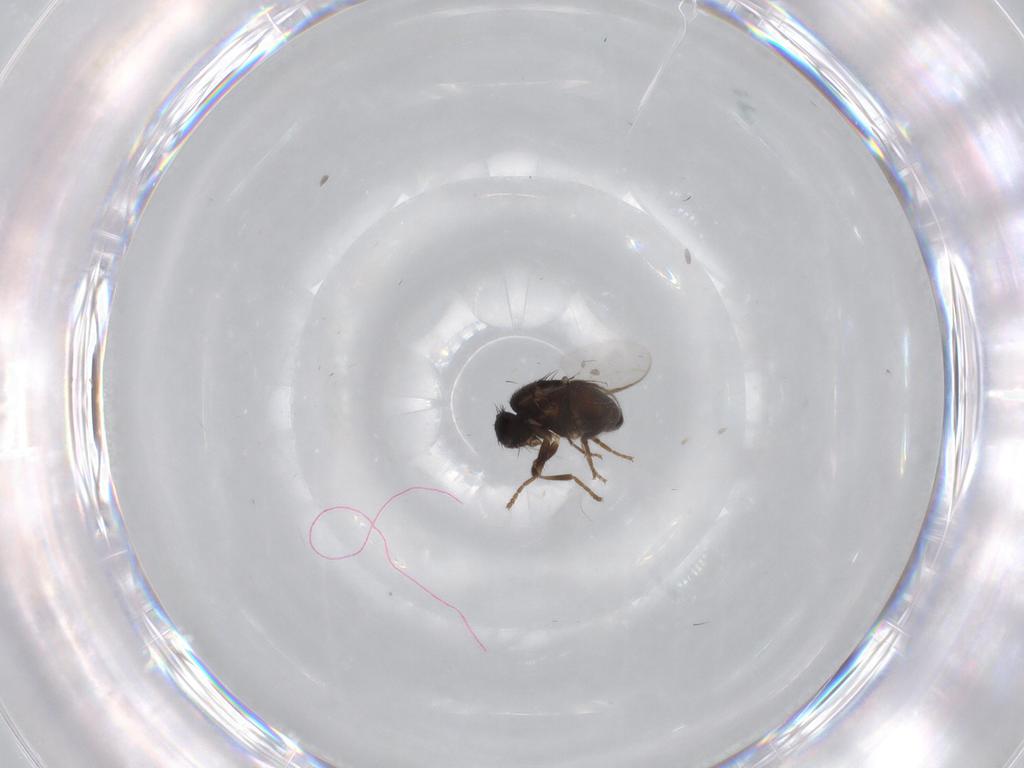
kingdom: Animalia
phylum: Arthropoda
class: Insecta
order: Diptera
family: Sphaeroceridae
